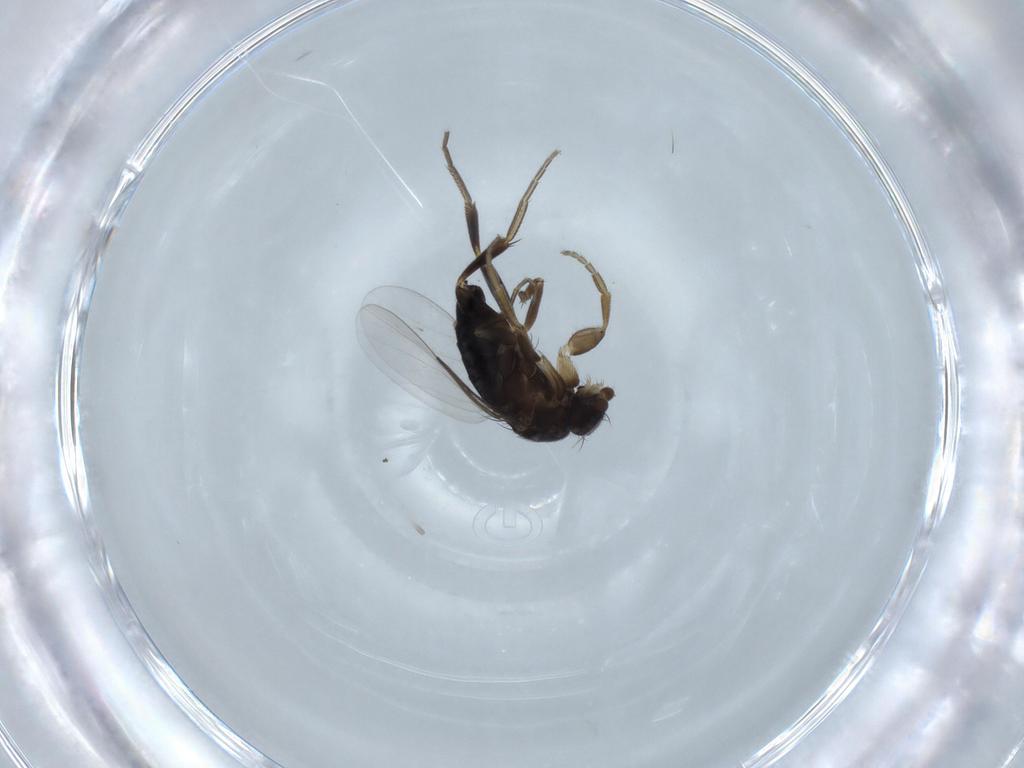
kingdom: Animalia
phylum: Arthropoda
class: Insecta
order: Diptera
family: Phoridae
